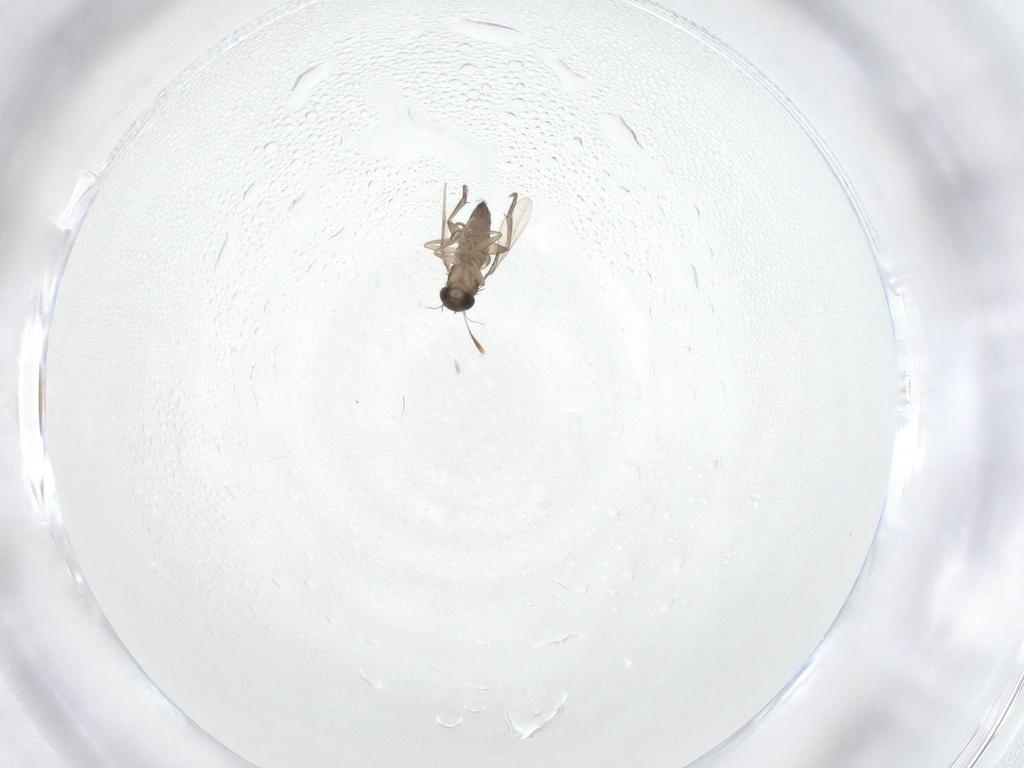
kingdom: Animalia
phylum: Arthropoda
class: Insecta
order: Diptera
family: Phoridae
